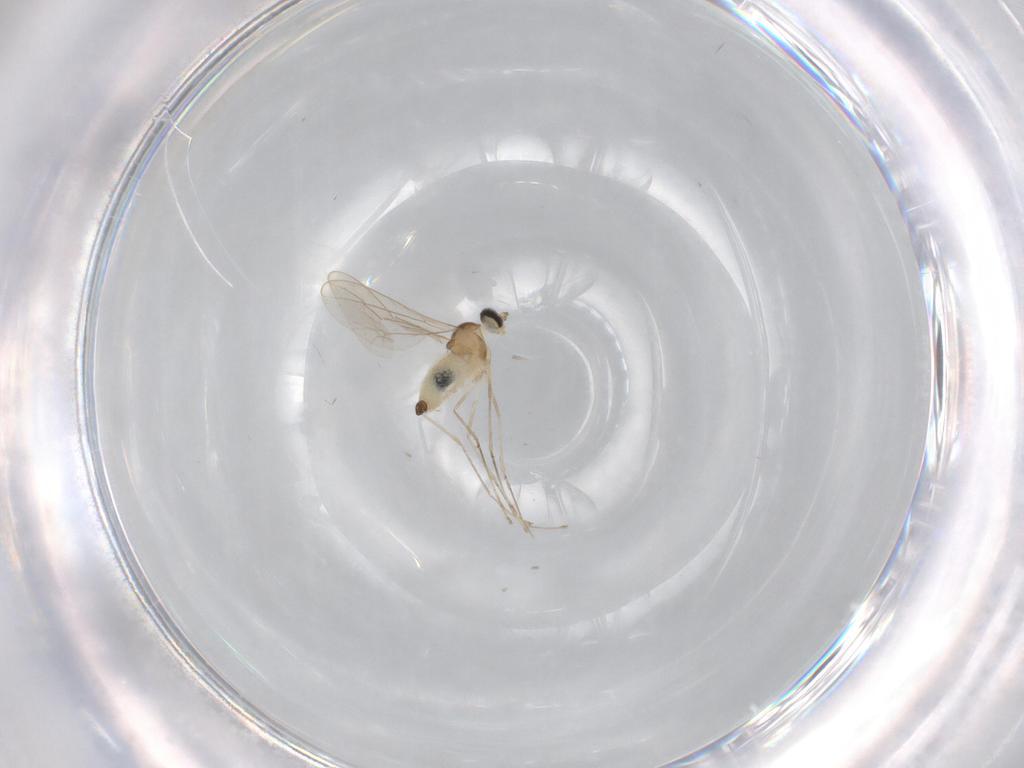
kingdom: Animalia
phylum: Arthropoda
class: Insecta
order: Diptera
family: Cecidomyiidae
